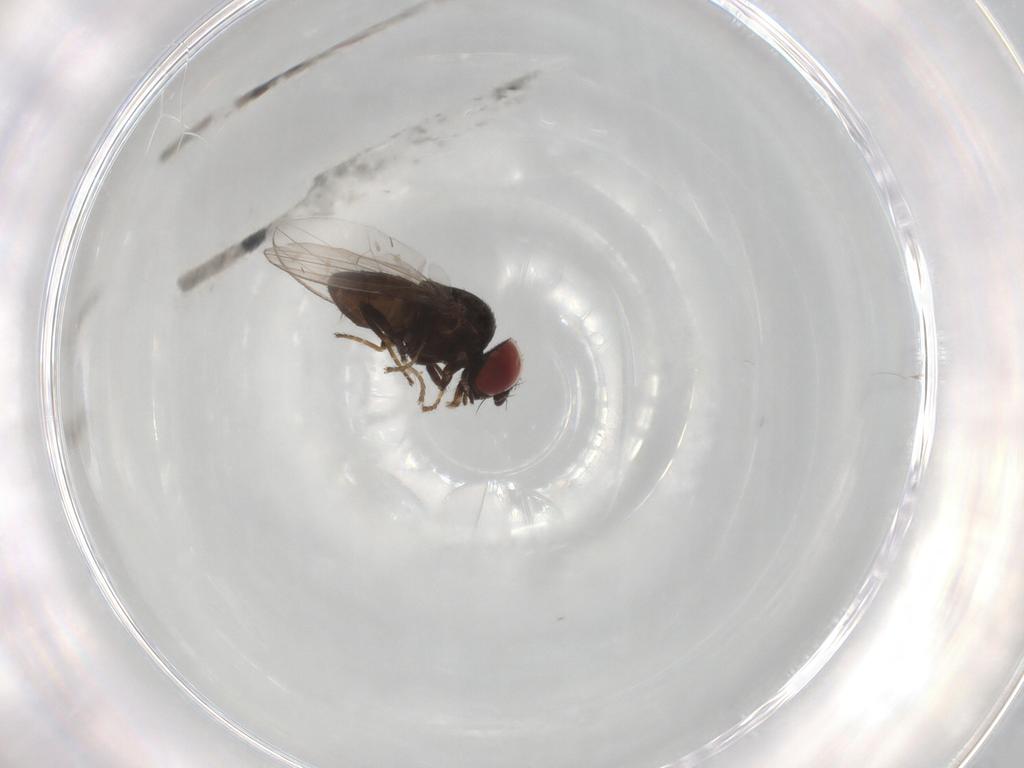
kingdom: Animalia
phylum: Arthropoda
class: Insecta
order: Diptera
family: Milichiidae
